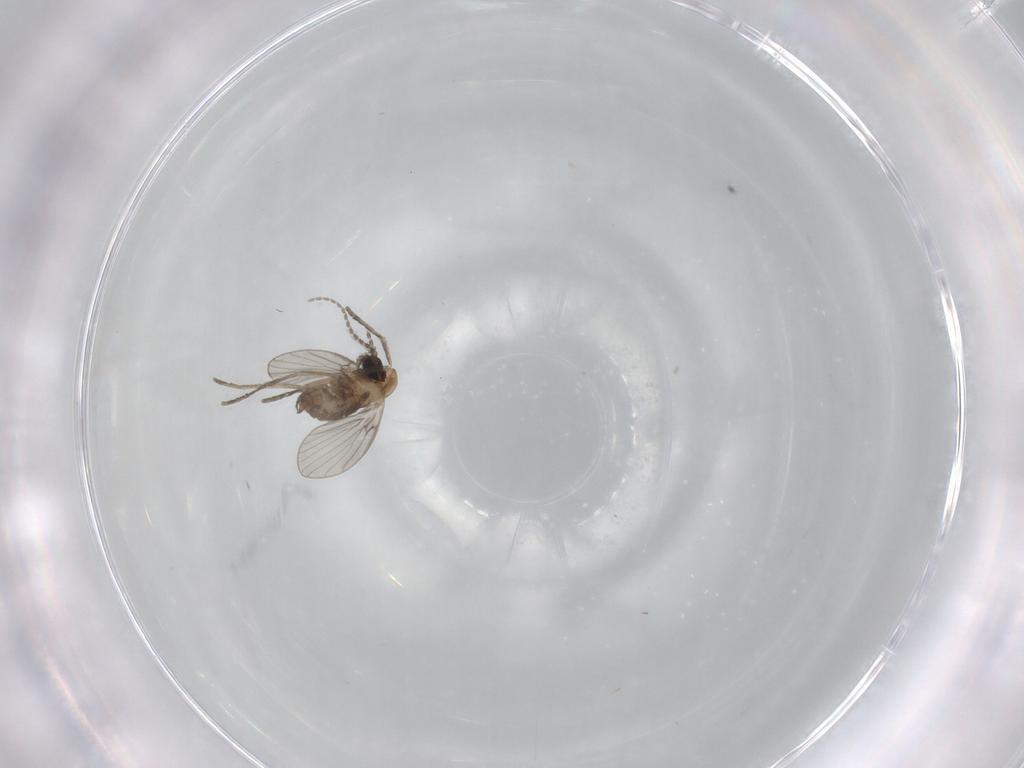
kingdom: Animalia
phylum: Arthropoda
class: Insecta
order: Diptera
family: Psychodidae
